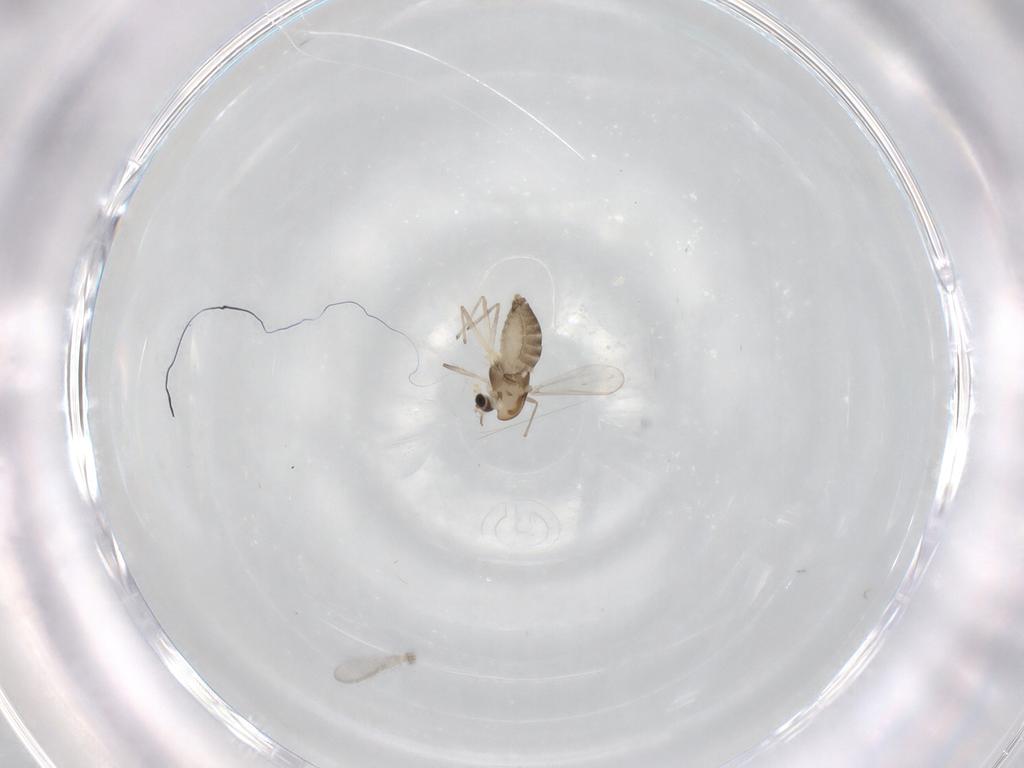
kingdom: Animalia
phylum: Arthropoda
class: Insecta
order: Diptera
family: Chironomidae
